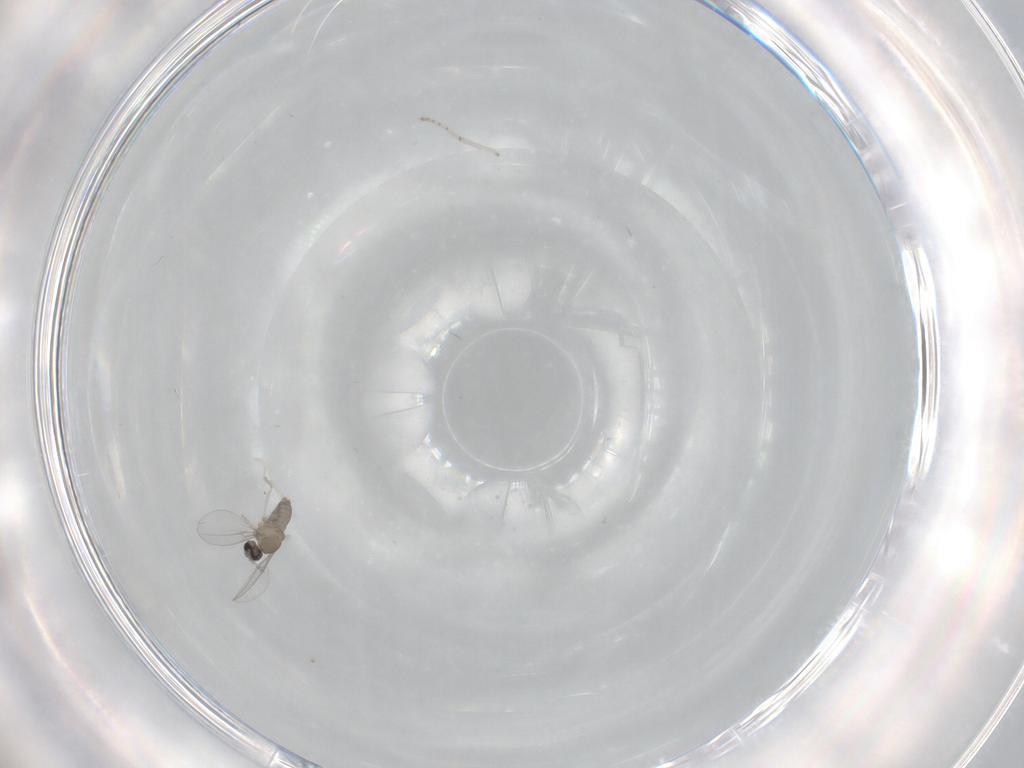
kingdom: Animalia
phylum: Arthropoda
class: Insecta
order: Diptera
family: Cecidomyiidae
